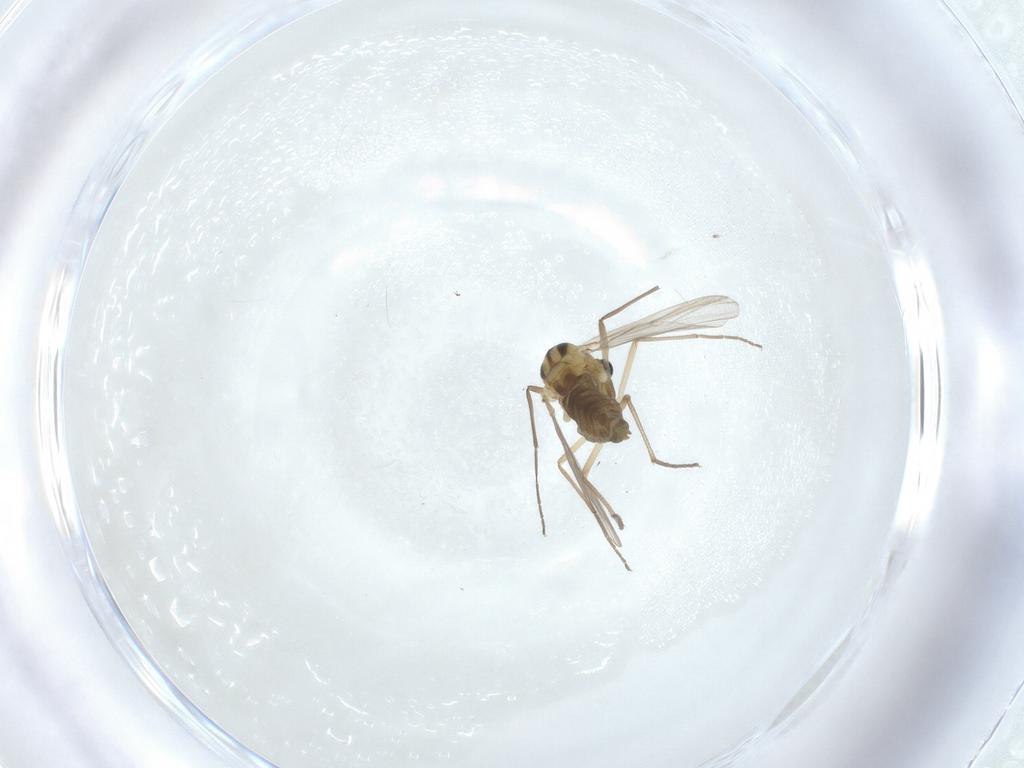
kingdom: Animalia
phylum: Arthropoda
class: Insecta
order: Diptera
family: Chironomidae
